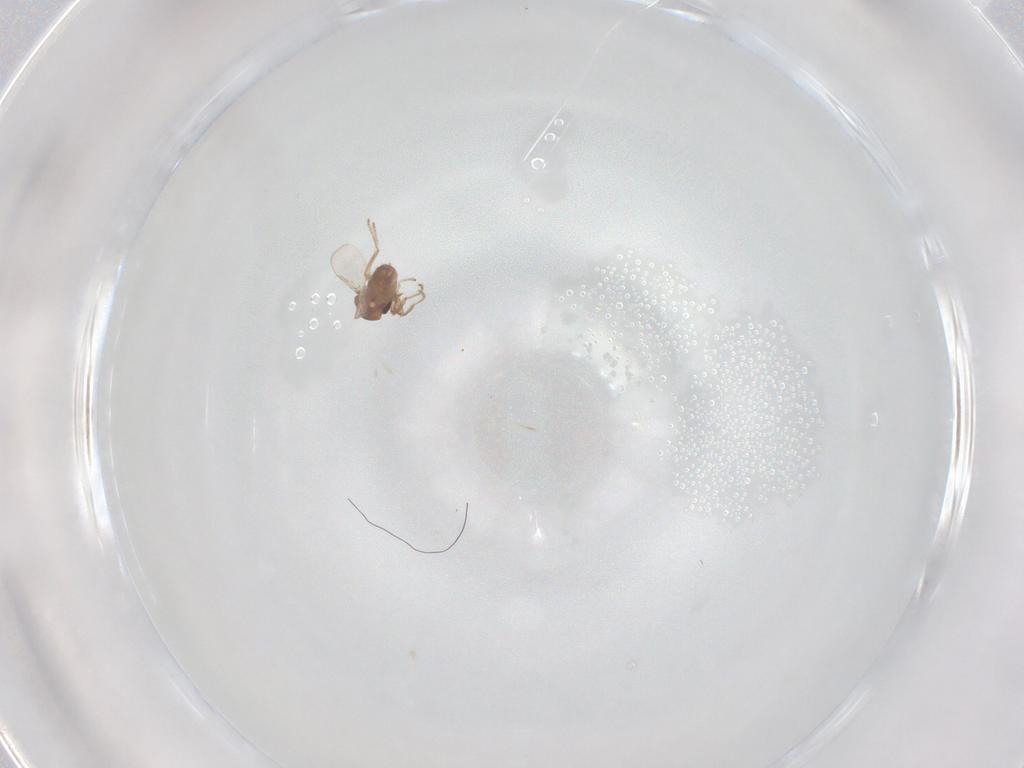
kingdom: Animalia
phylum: Arthropoda
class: Insecta
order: Diptera
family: Ceratopogonidae
